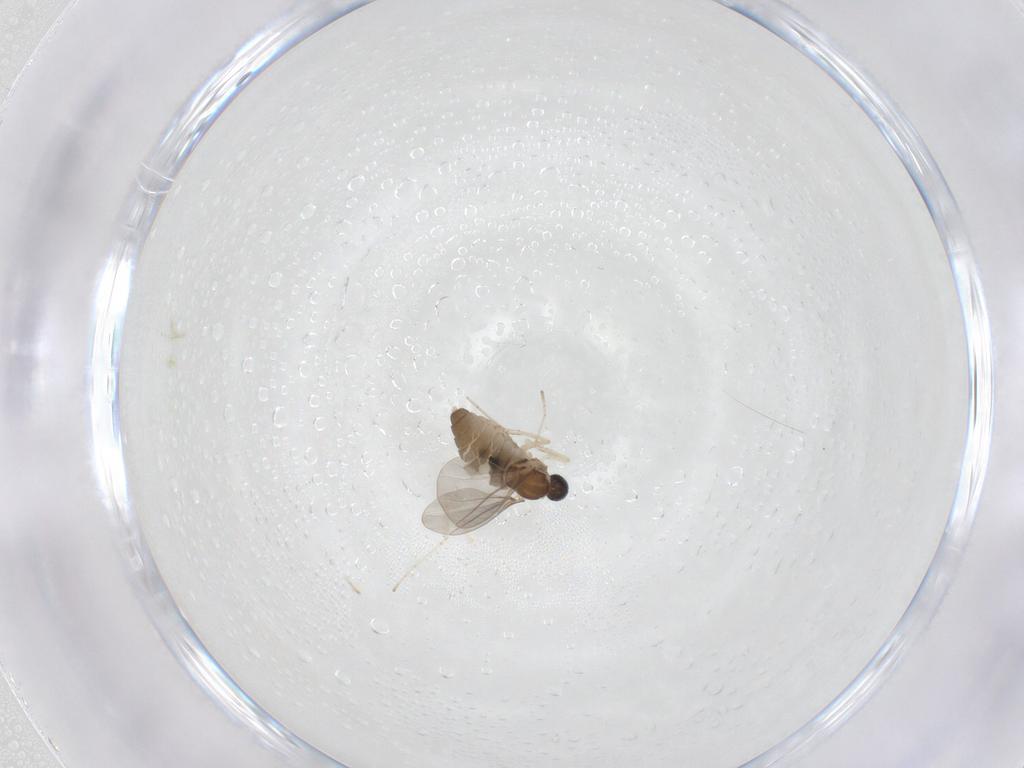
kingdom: Animalia
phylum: Arthropoda
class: Insecta
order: Diptera
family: Cecidomyiidae
